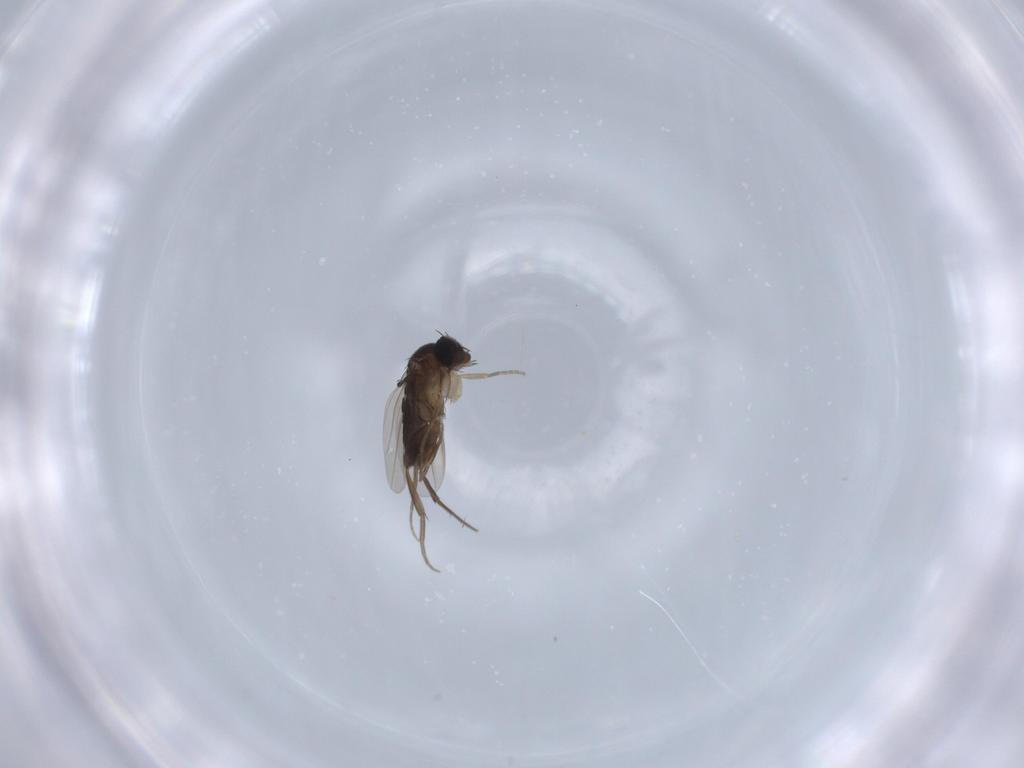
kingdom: Animalia
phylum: Arthropoda
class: Insecta
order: Diptera
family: Phoridae
